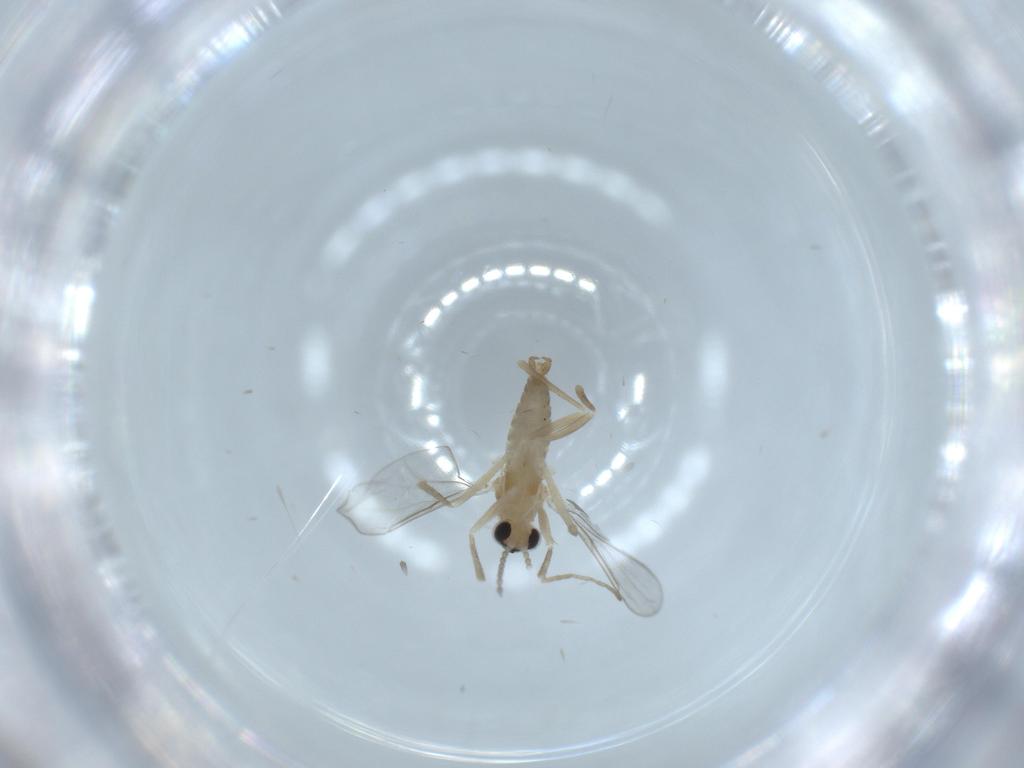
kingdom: Animalia
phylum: Arthropoda
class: Insecta
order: Diptera
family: Cecidomyiidae
